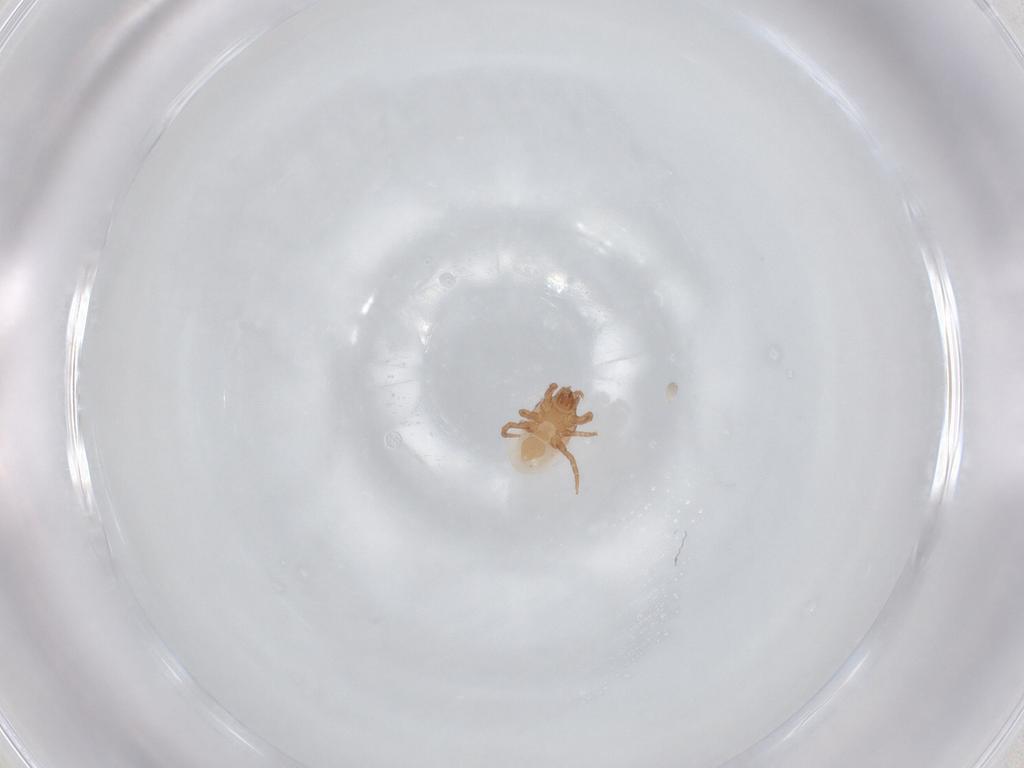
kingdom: Animalia
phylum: Arthropoda
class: Arachnida
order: Mesostigmata
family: Macrochelidae
